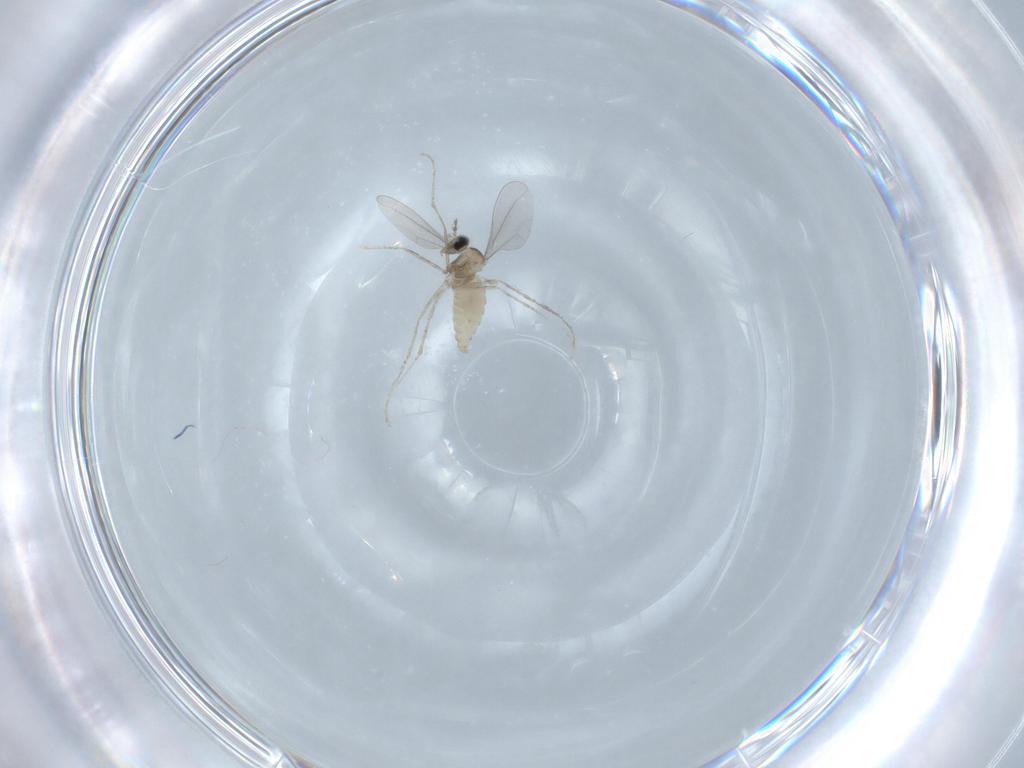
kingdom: Animalia
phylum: Arthropoda
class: Insecta
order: Diptera
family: Cecidomyiidae
